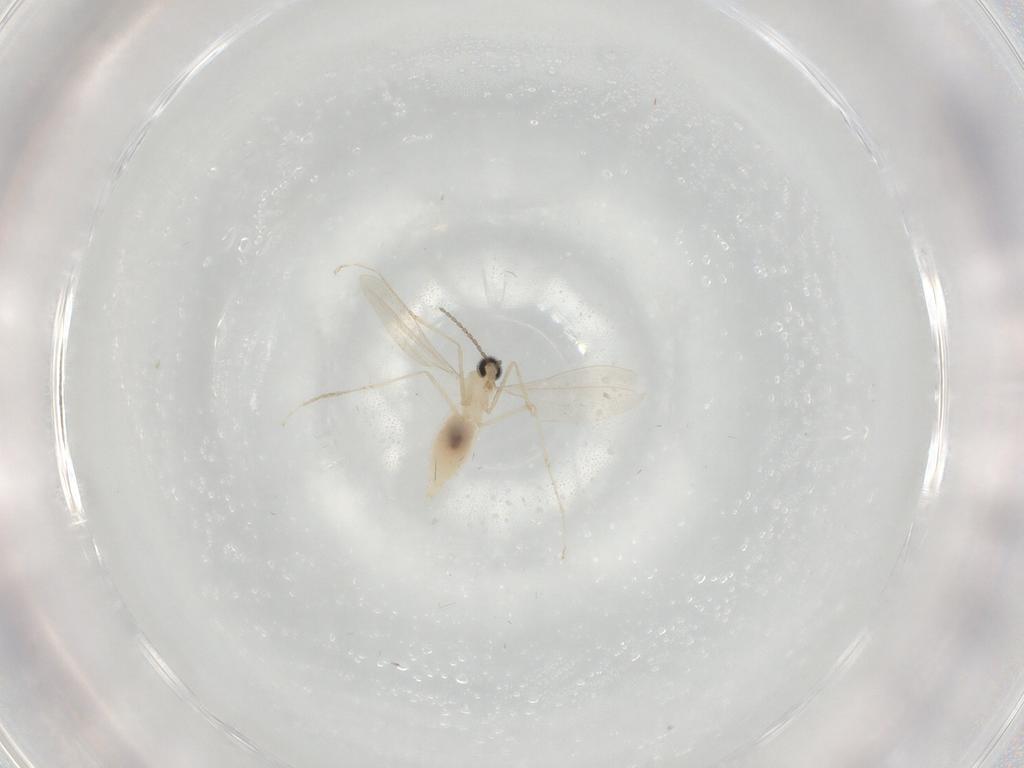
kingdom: Animalia
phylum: Arthropoda
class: Insecta
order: Diptera
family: Cecidomyiidae
